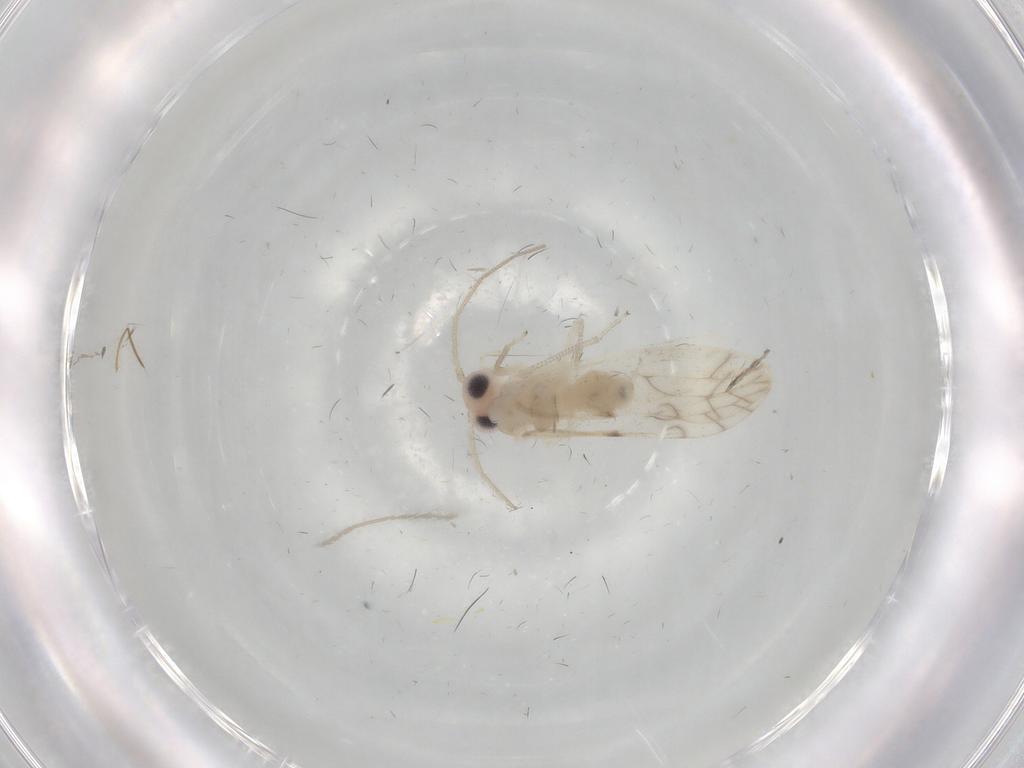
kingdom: Animalia
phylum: Arthropoda
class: Insecta
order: Psocodea
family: Caeciliusidae
